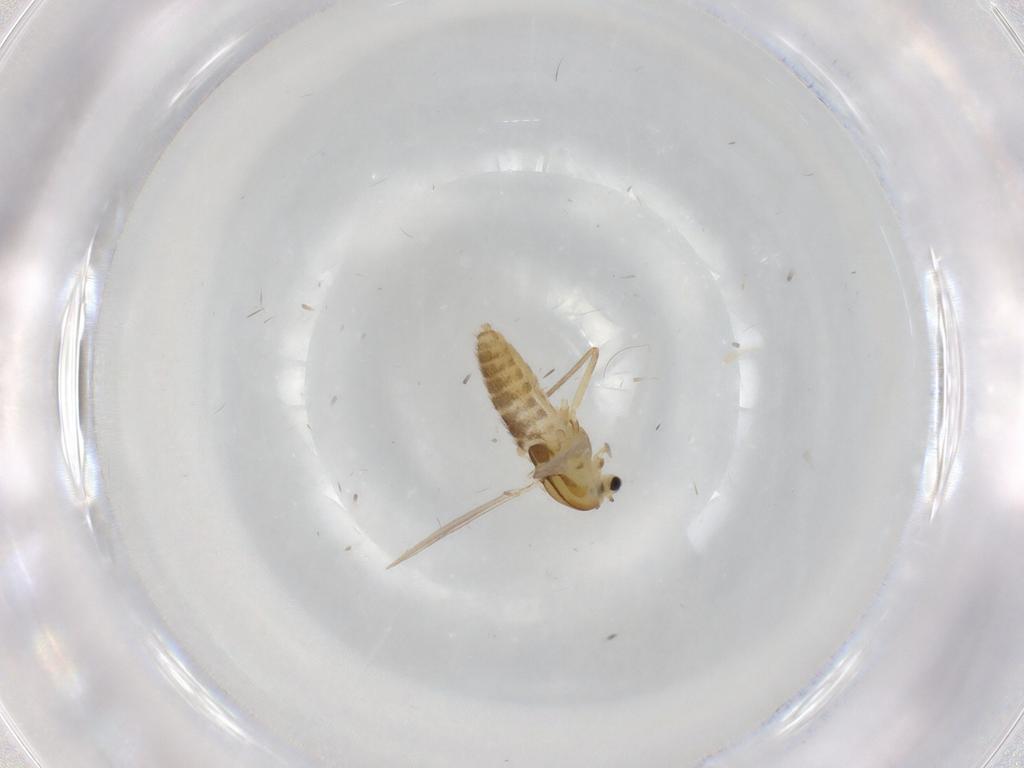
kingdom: Animalia
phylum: Arthropoda
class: Insecta
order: Diptera
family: Chironomidae
